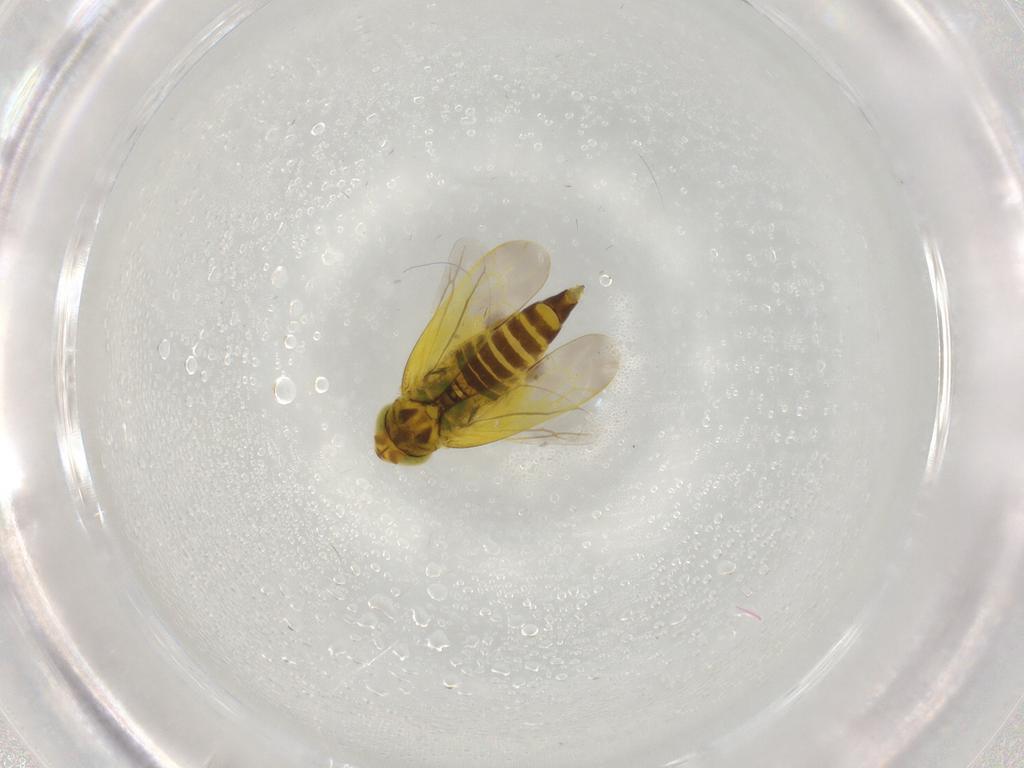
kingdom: Animalia
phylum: Arthropoda
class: Insecta
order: Hemiptera
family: Cicadellidae
